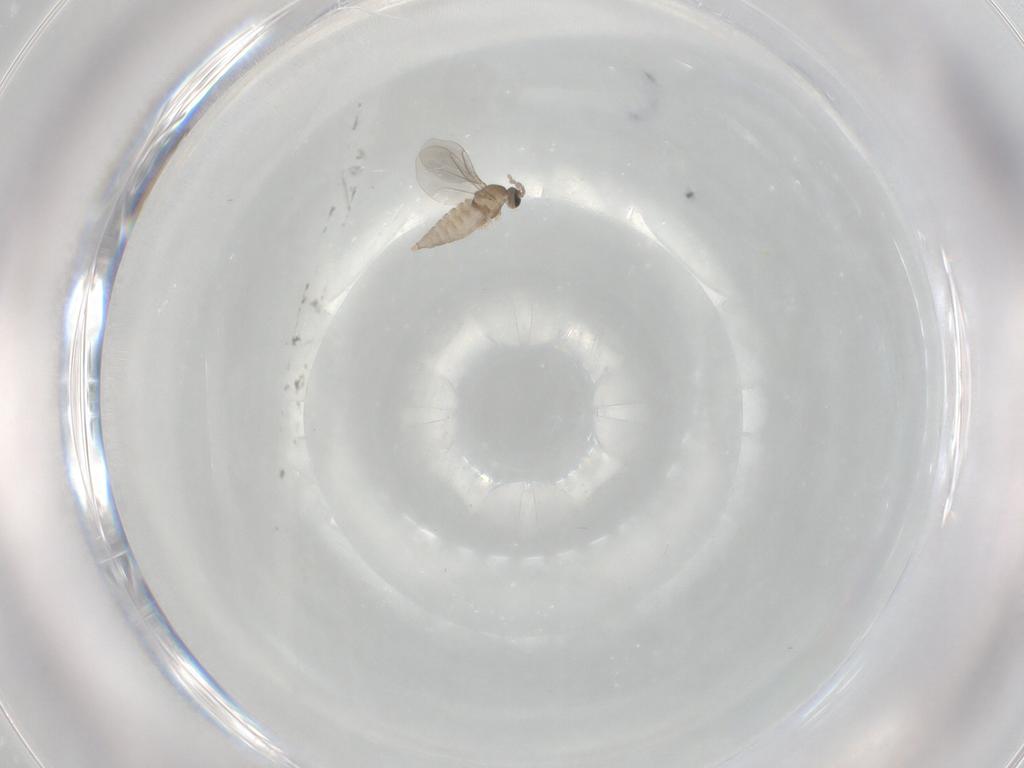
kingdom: Animalia
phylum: Arthropoda
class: Insecta
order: Diptera
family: Cecidomyiidae
